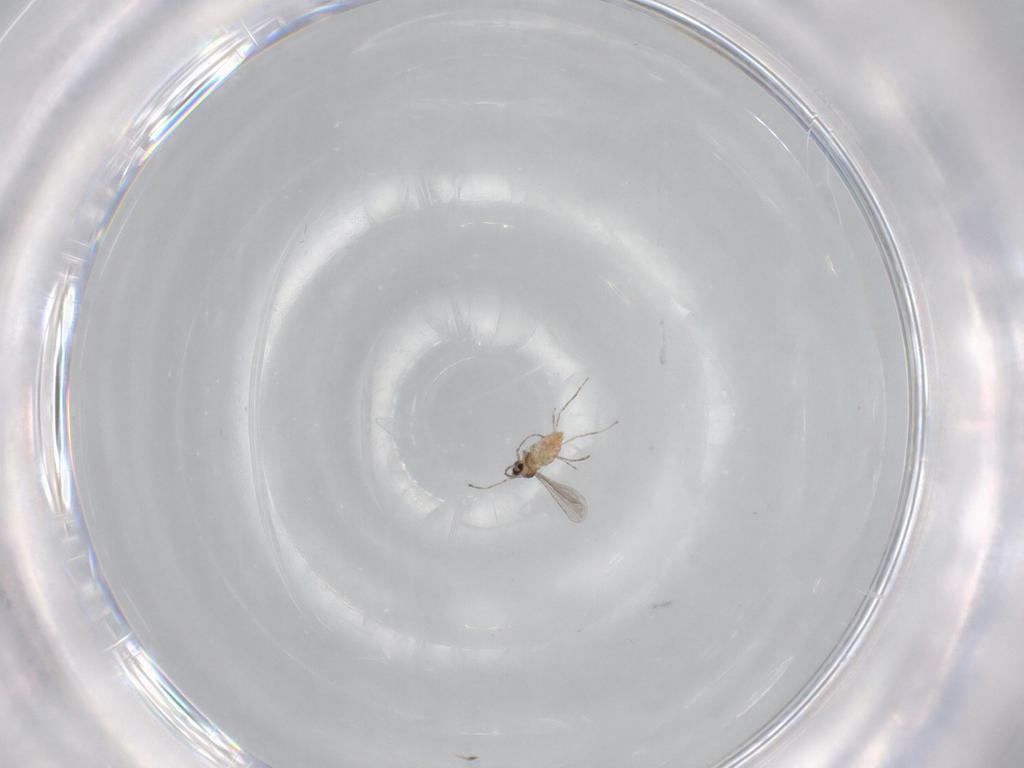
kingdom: Animalia
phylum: Arthropoda
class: Insecta
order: Diptera
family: Cecidomyiidae
